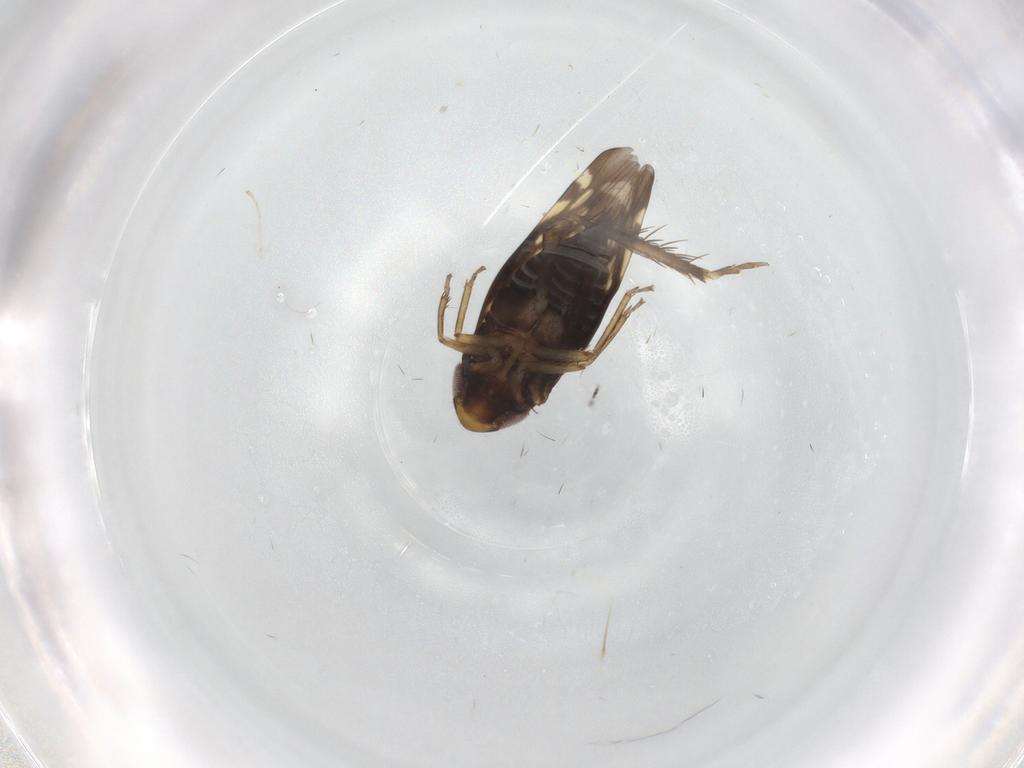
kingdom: Animalia
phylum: Arthropoda
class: Insecta
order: Hemiptera
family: Cicadellidae
